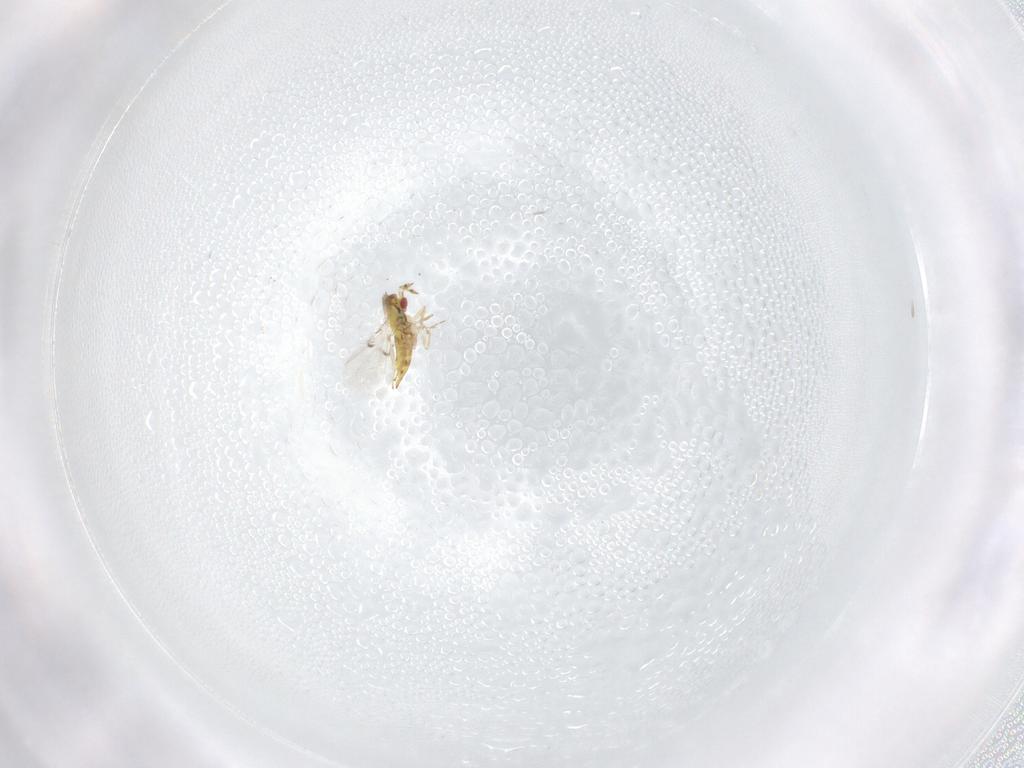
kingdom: Animalia
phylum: Arthropoda
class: Insecta
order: Hymenoptera
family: Trichogrammatidae
